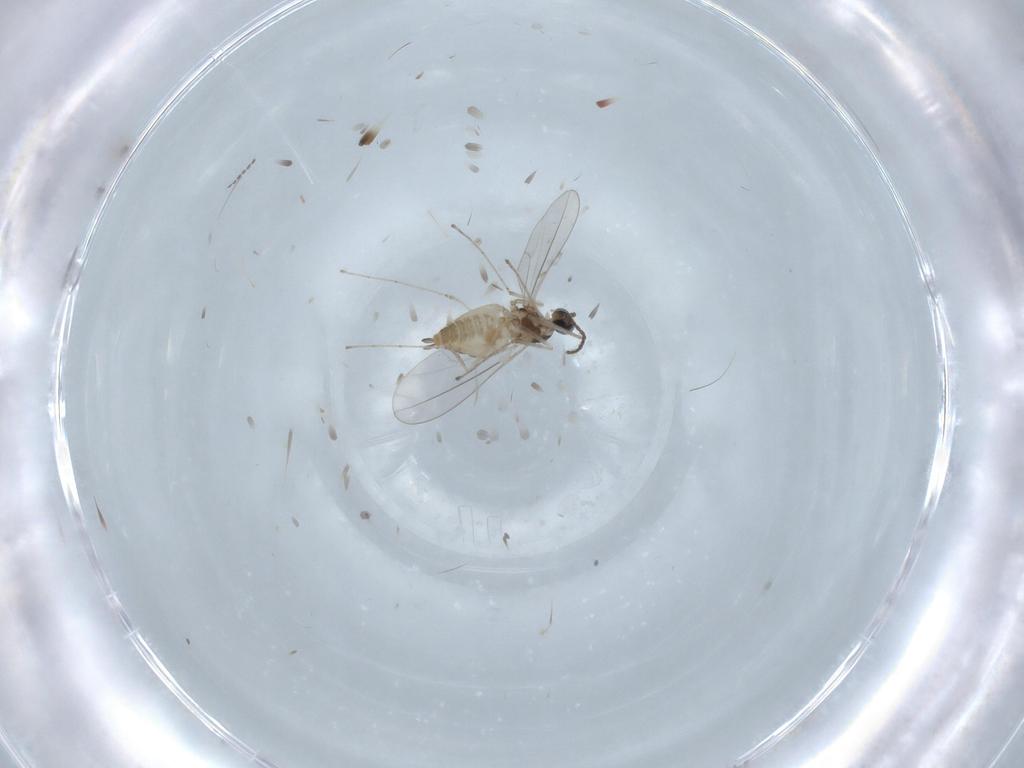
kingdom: Animalia
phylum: Arthropoda
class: Insecta
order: Diptera
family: Cecidomyiidae
